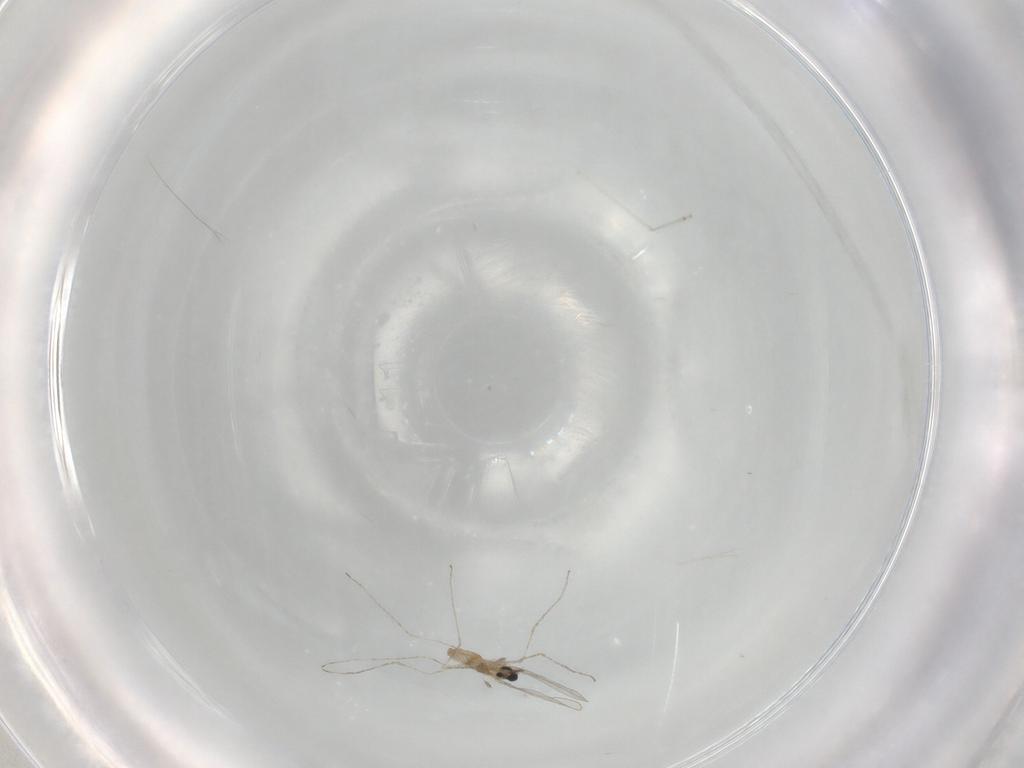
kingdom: Animalia
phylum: Arthropoda
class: Insecta
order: Diptera
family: Cecidomyiidae
